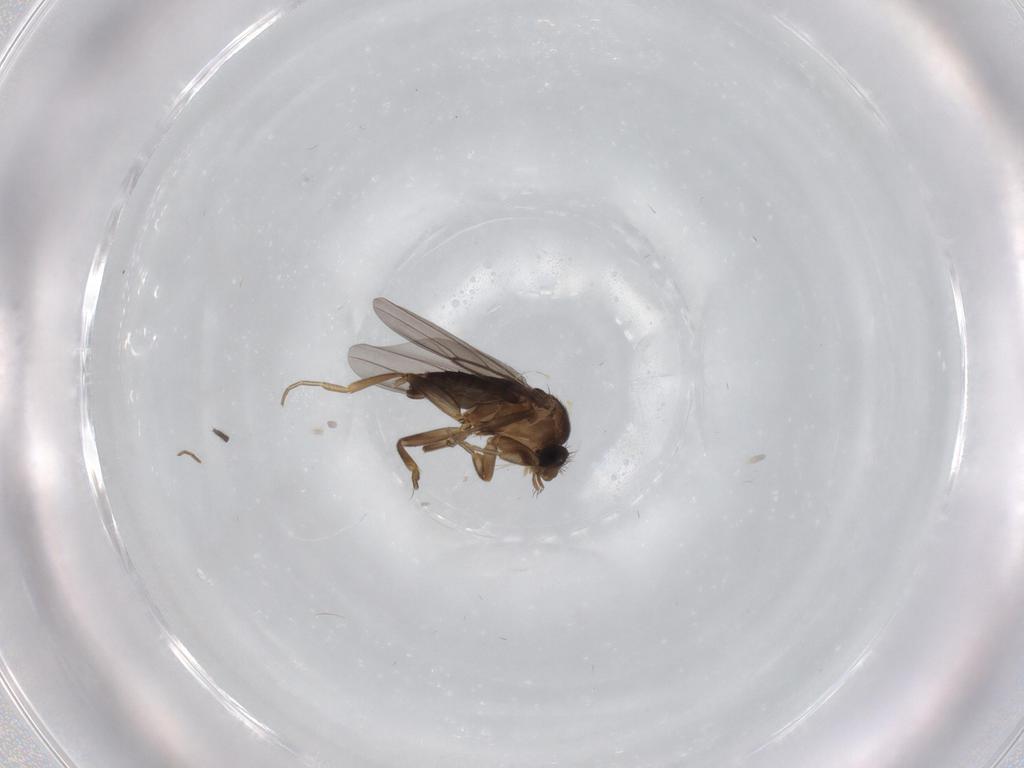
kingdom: Animalia
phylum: Arthropoda
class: Insecta
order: Diptera
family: Phoridae
